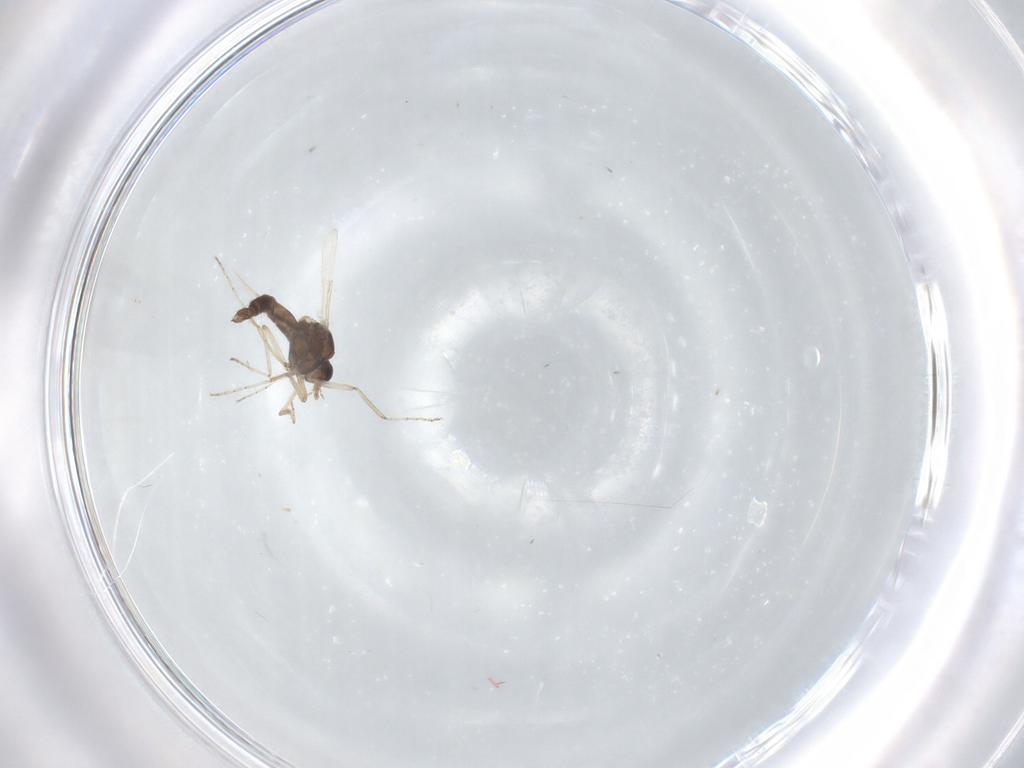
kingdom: Animalia
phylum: Arthropoda
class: Insecta
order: Diptera
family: Ceratopogonidae
